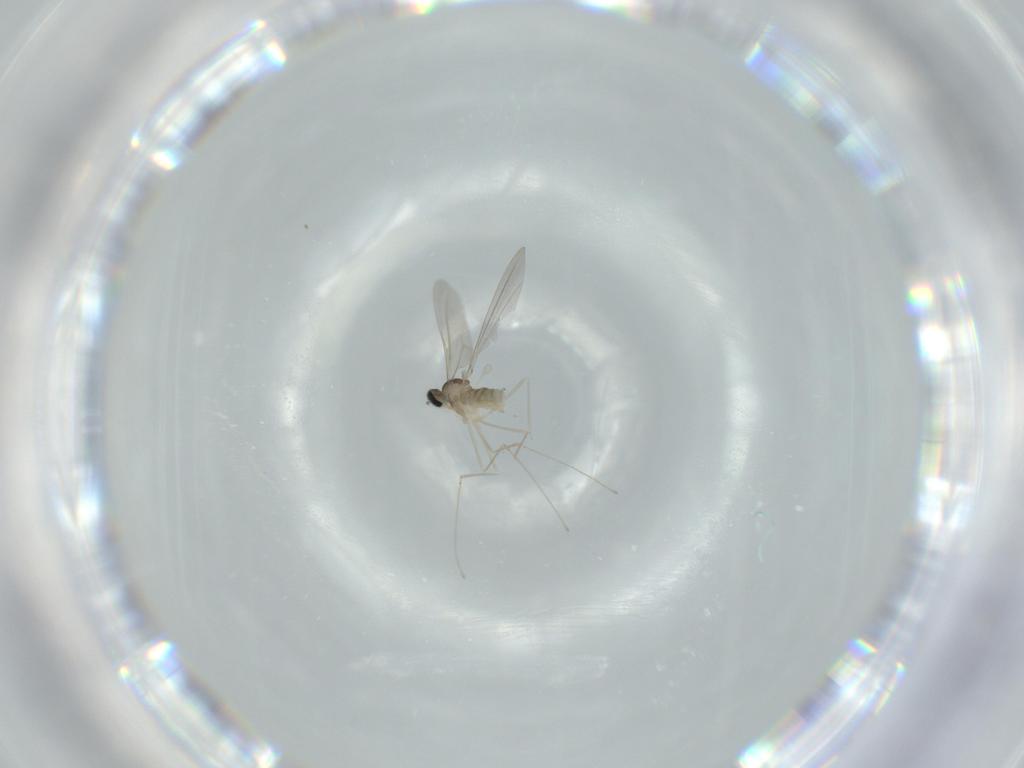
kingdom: Animalia
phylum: Arthropoda
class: Insecta
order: Diptera
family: Cecidomyiidae
